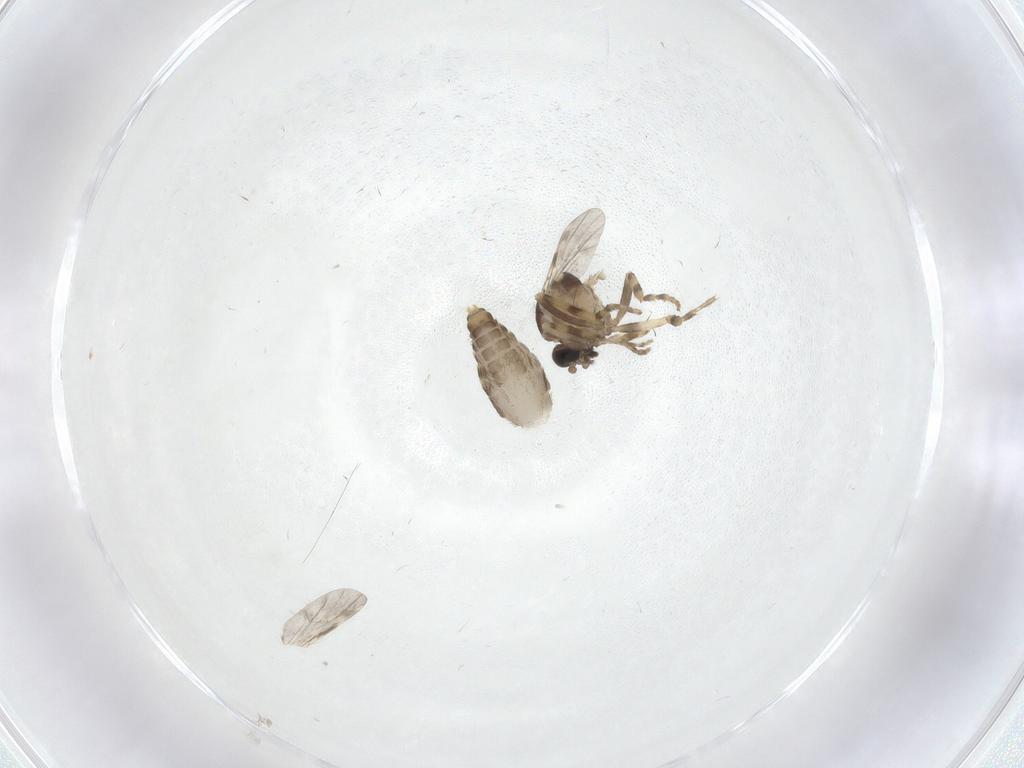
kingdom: Animalia
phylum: Arthropoda
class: Insecta
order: Diptera
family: Ceratopogonidae
